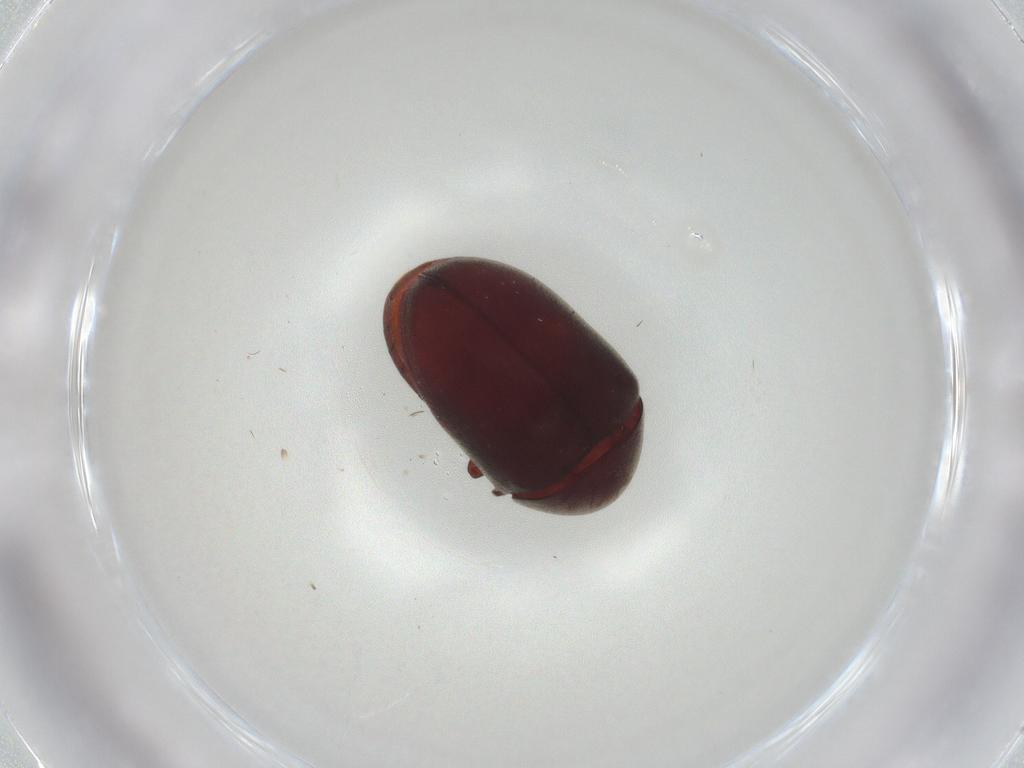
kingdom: Animalia
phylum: Arthropoda
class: Insecta
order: Coleoptera
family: Ptinidae
